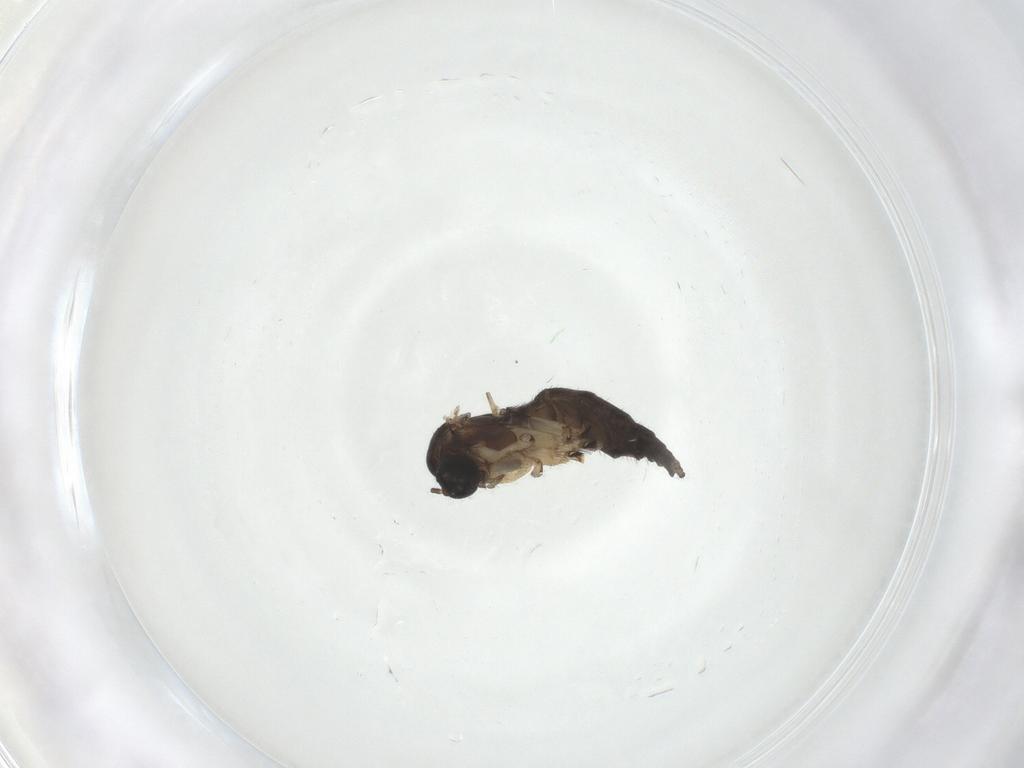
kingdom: Animalia
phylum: Arthropoda
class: Insecta
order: Diptera
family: Sciaridae
